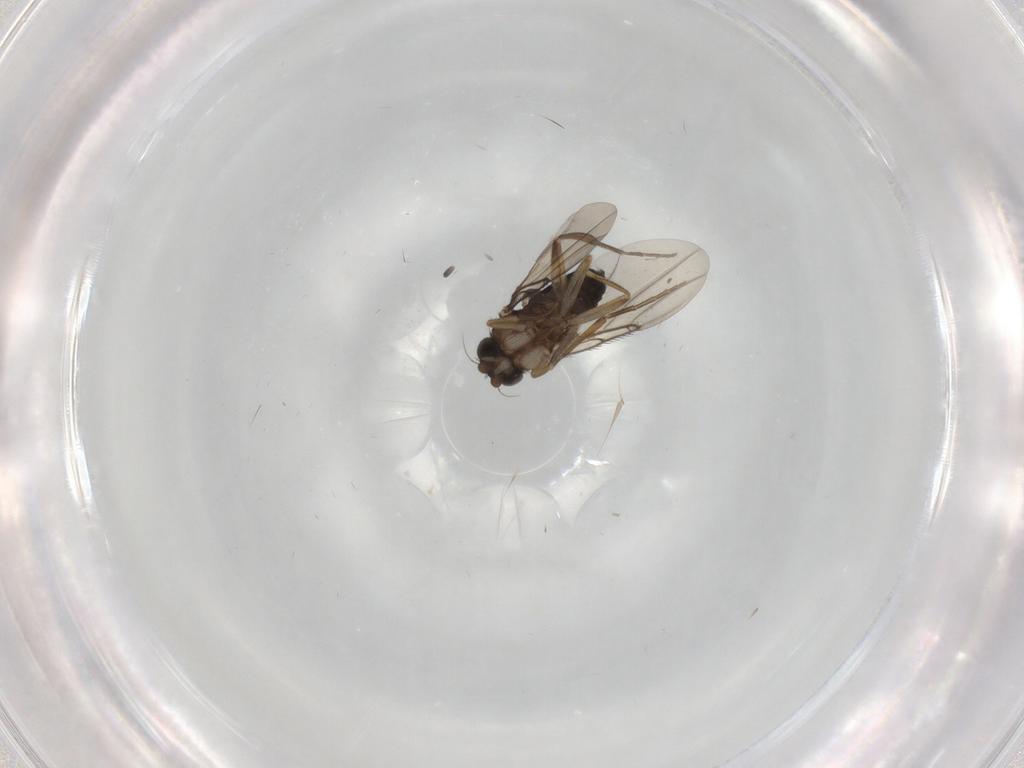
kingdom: Animalia
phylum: Arthropoda
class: Insecta
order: Diptera
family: Phoridae
